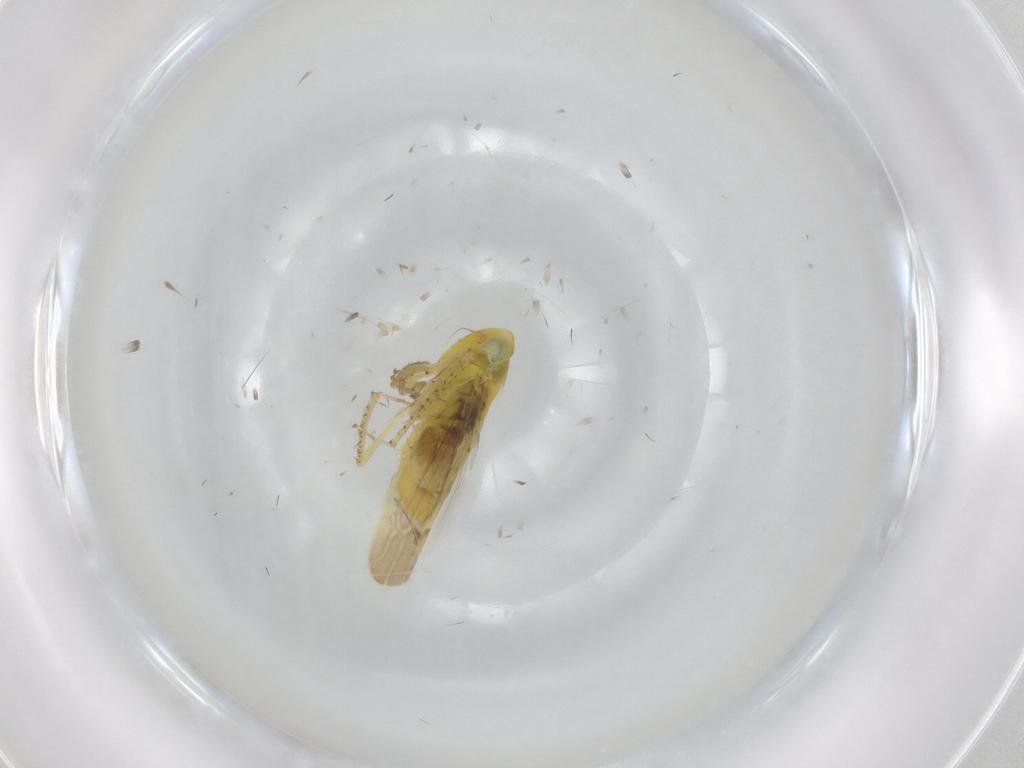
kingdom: Animalia
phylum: Arthropoda
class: Insecta
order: Hemiptera
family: Cicadellidae
